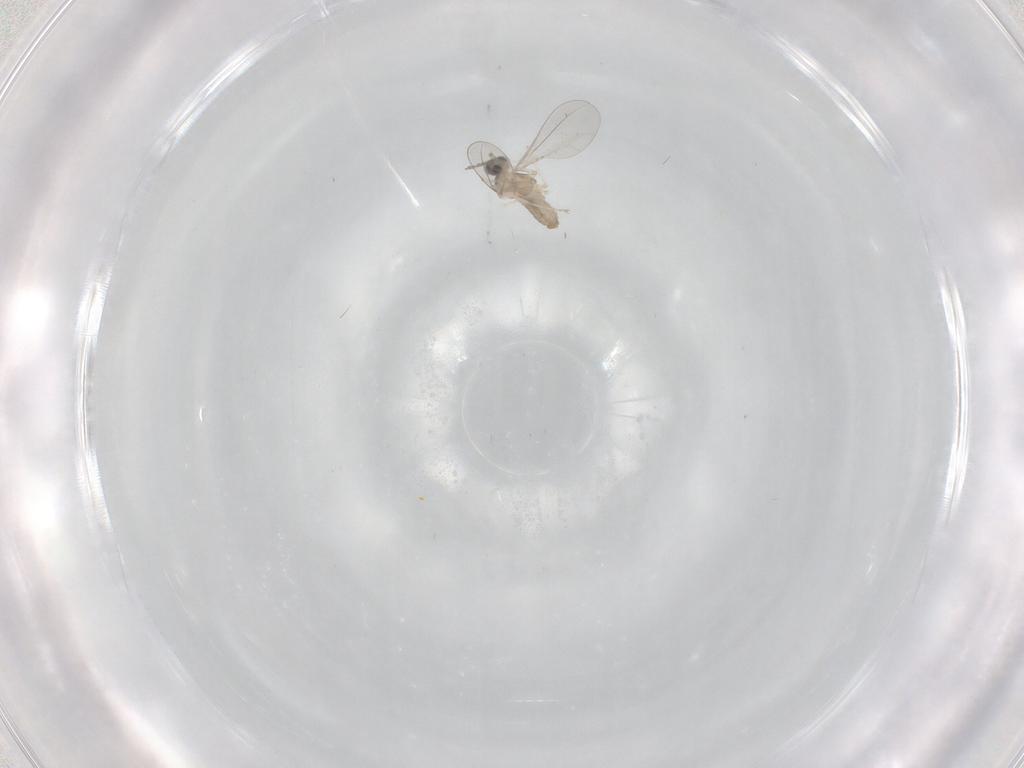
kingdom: Animalia
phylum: Arthropoda
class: Insecta
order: Diptera
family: Cecidomyiidae
